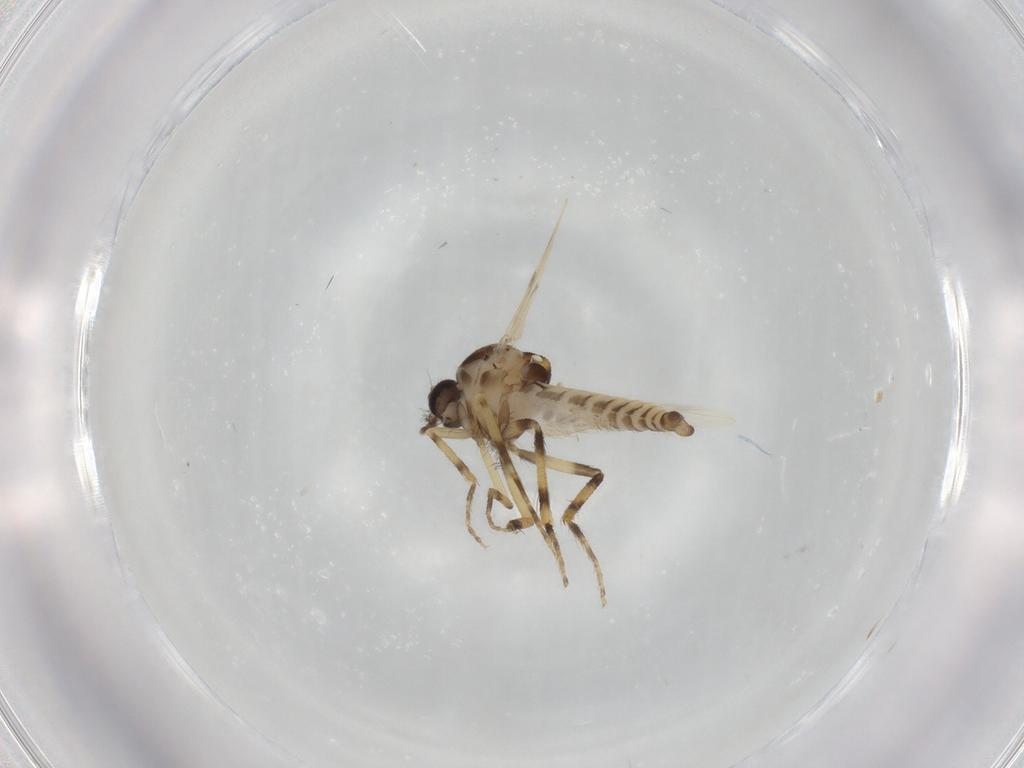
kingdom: Animalia
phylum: Arthropoda
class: Insecta
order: Diptera
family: Ceratopogonidae
